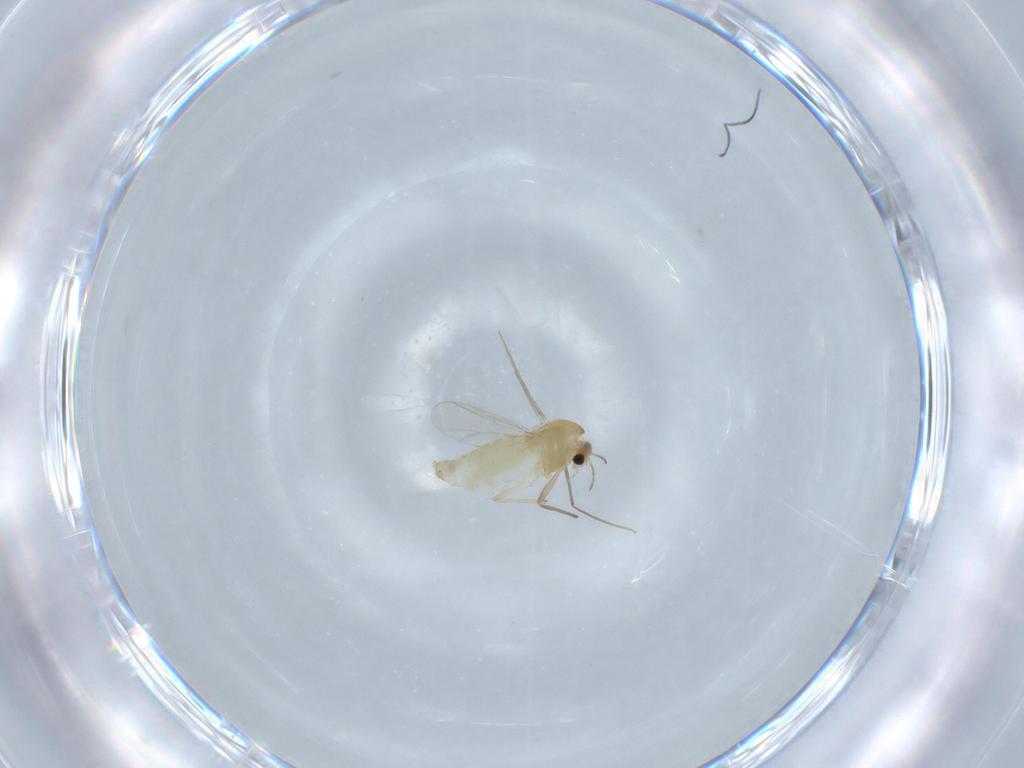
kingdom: Animalia
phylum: Arthropoda
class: Insecta
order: Diptera
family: Chironomidae
